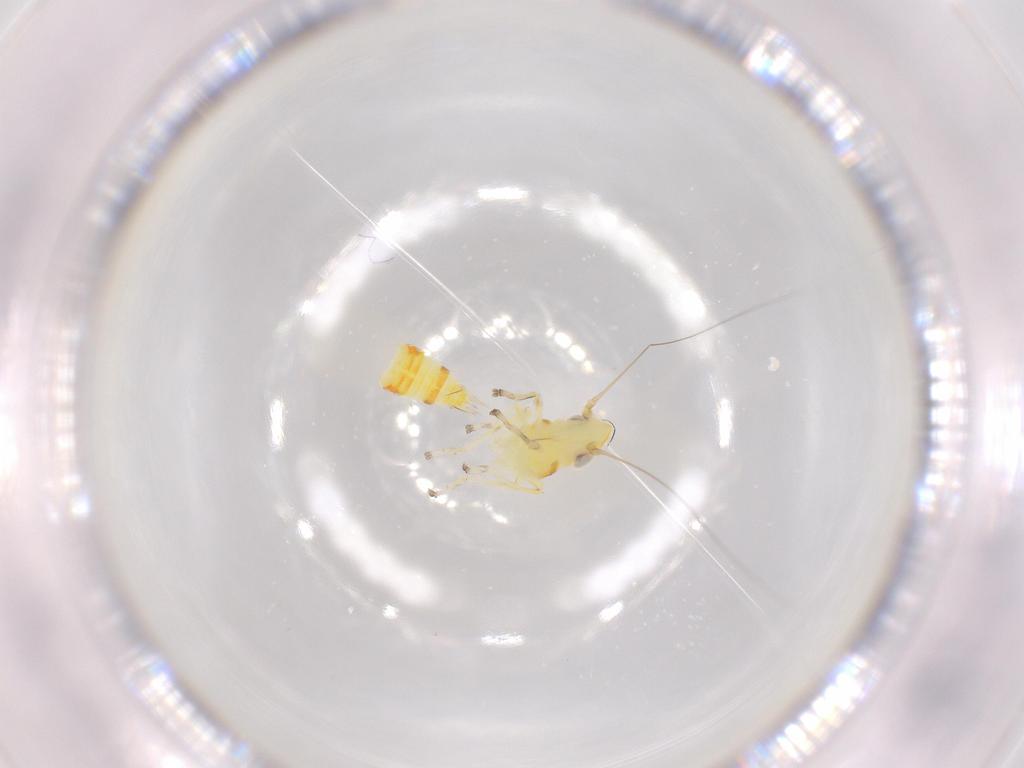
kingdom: Animalia
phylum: Arthropoda
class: Insecta
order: Hemiptera
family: Cicadellidae
